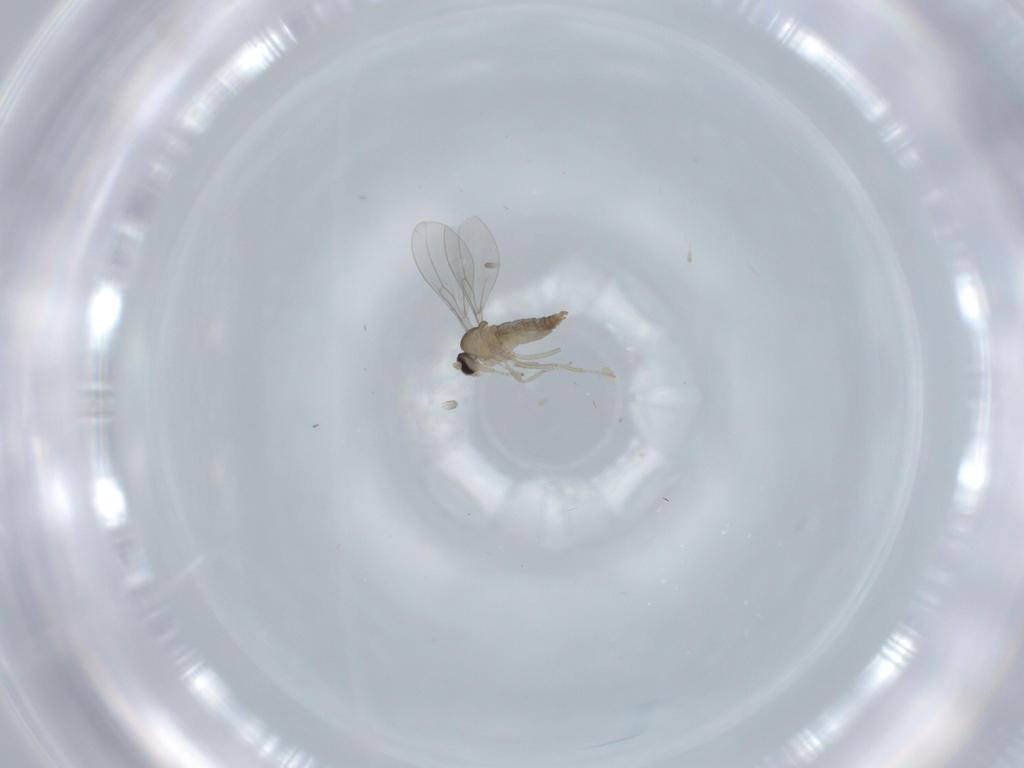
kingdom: Animalia
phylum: Arthropoda
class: Insecta
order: Diptera
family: Cecidomyiidae
